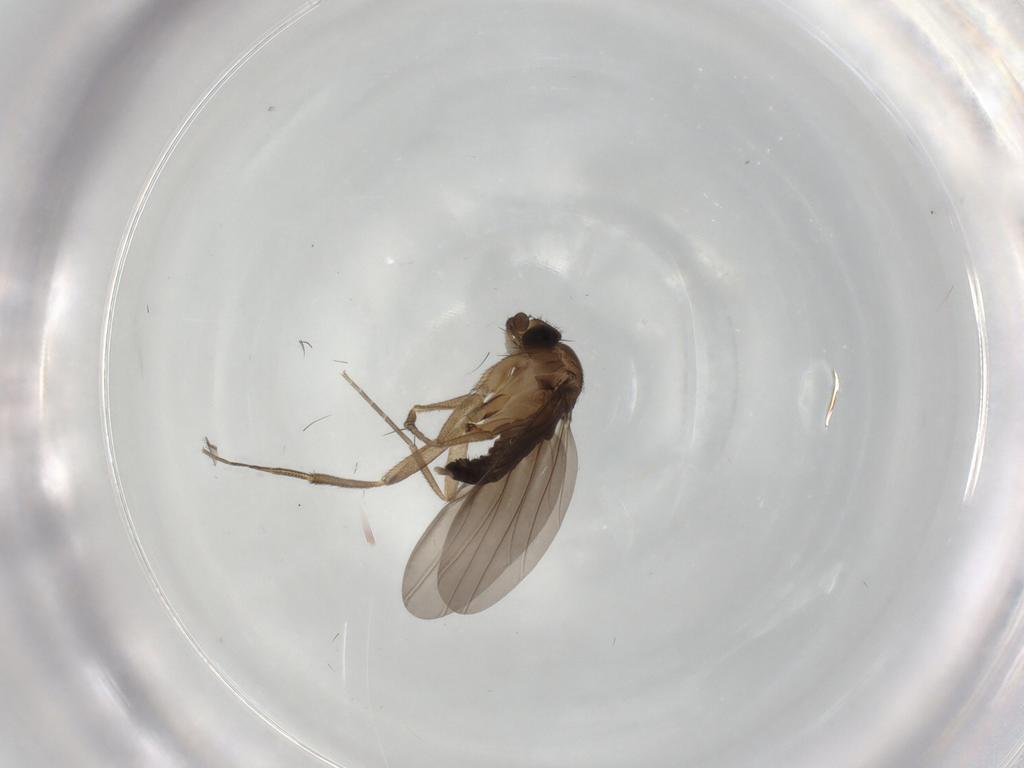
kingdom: Animalia
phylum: Arthropoda
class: Insecta
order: Diptera
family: Phoridae
